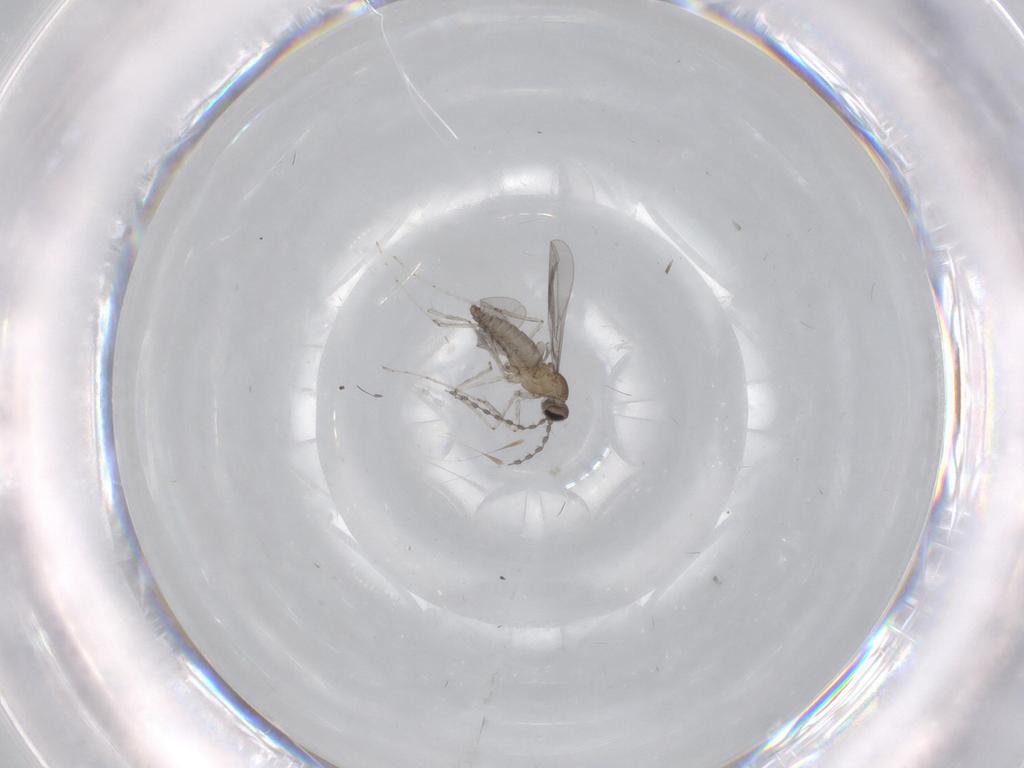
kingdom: Animalia
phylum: Arthropoda
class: Insecta
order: Diptera
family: Cecidomyiidae
